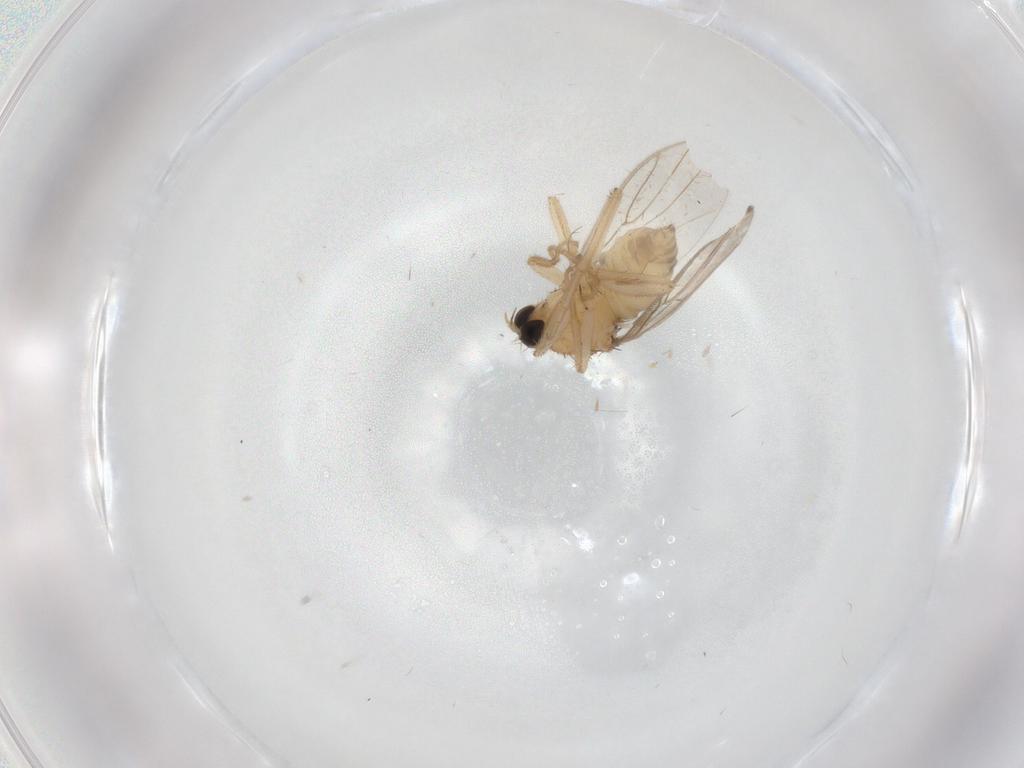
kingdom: Animalia
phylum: Arthropoda
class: Insecta
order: Diptera
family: Hybotidae
